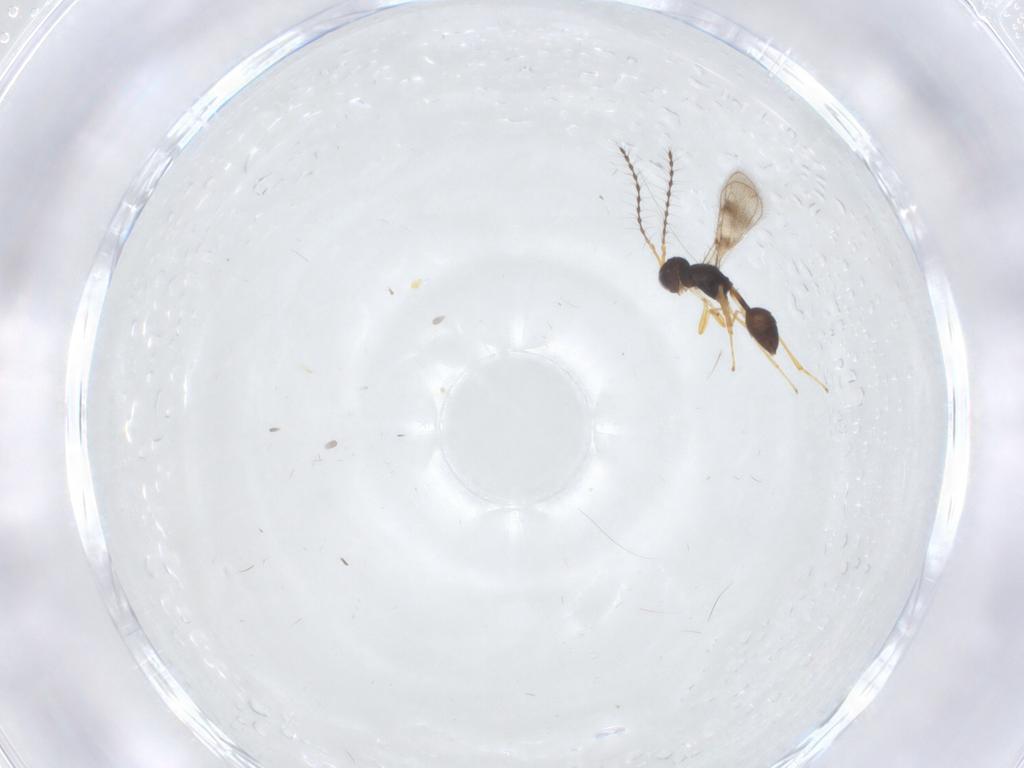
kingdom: Animalia
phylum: Arthropoda
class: Insecta
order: Hymenoptera
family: Diparidae
